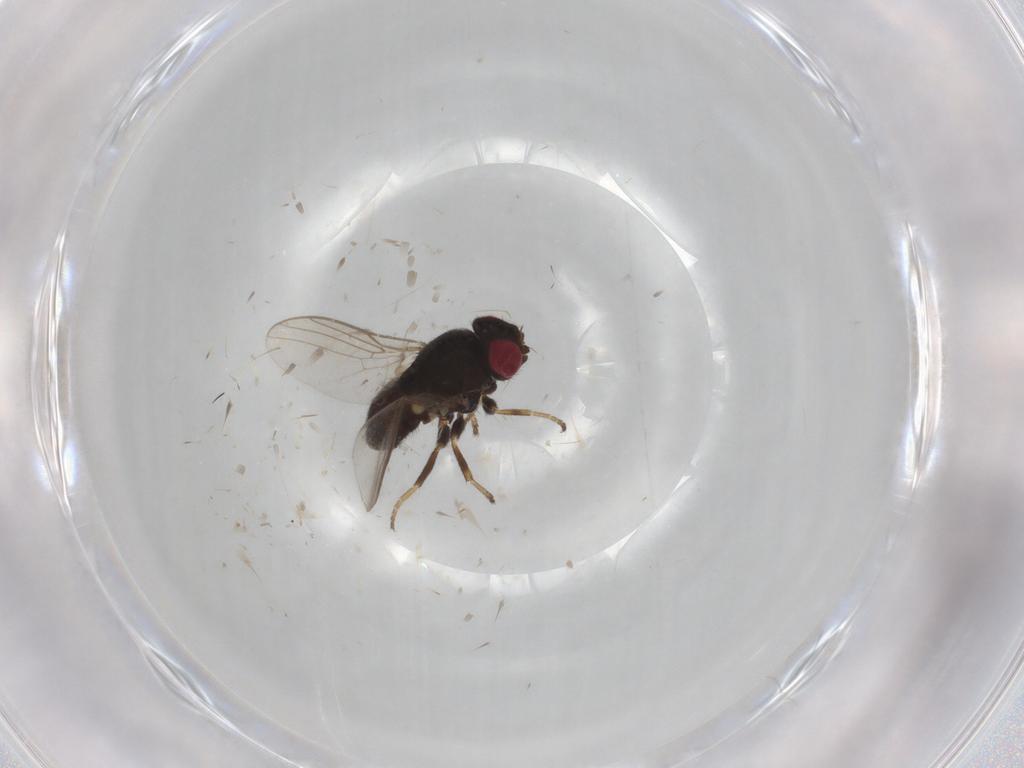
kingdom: Animalia
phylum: Arthropoda
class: Insecta
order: Diptera
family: Chloropidae
